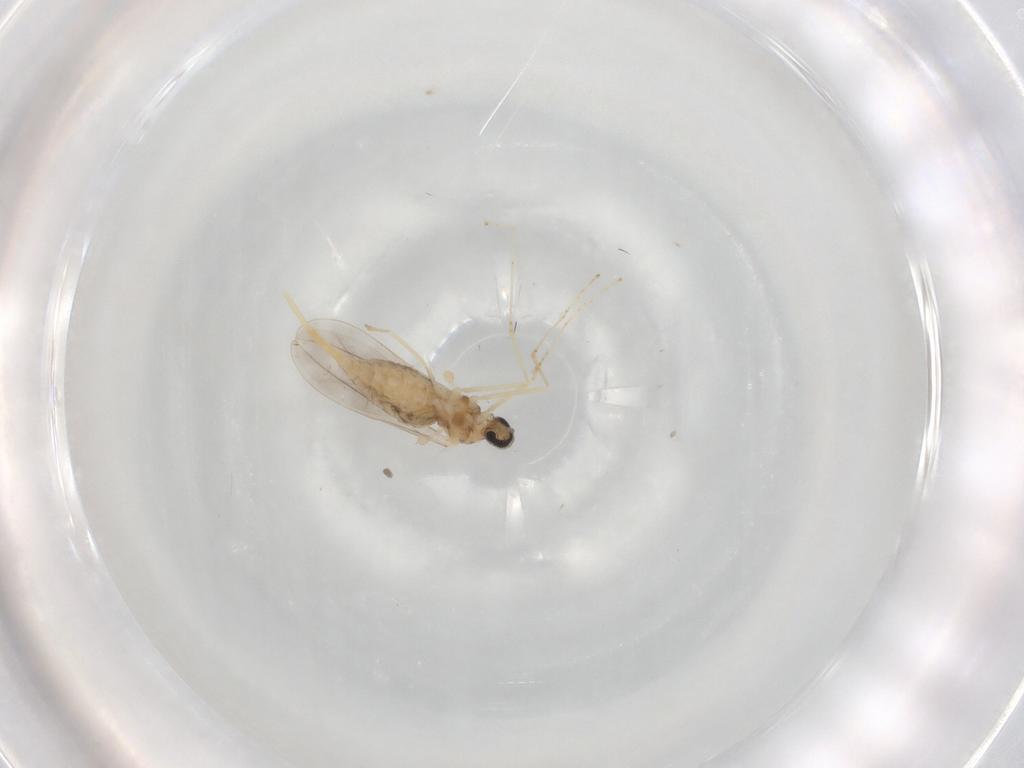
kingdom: Animalia
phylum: Arthropoda
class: Insecta
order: Diptera
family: Cecidomyiidae
